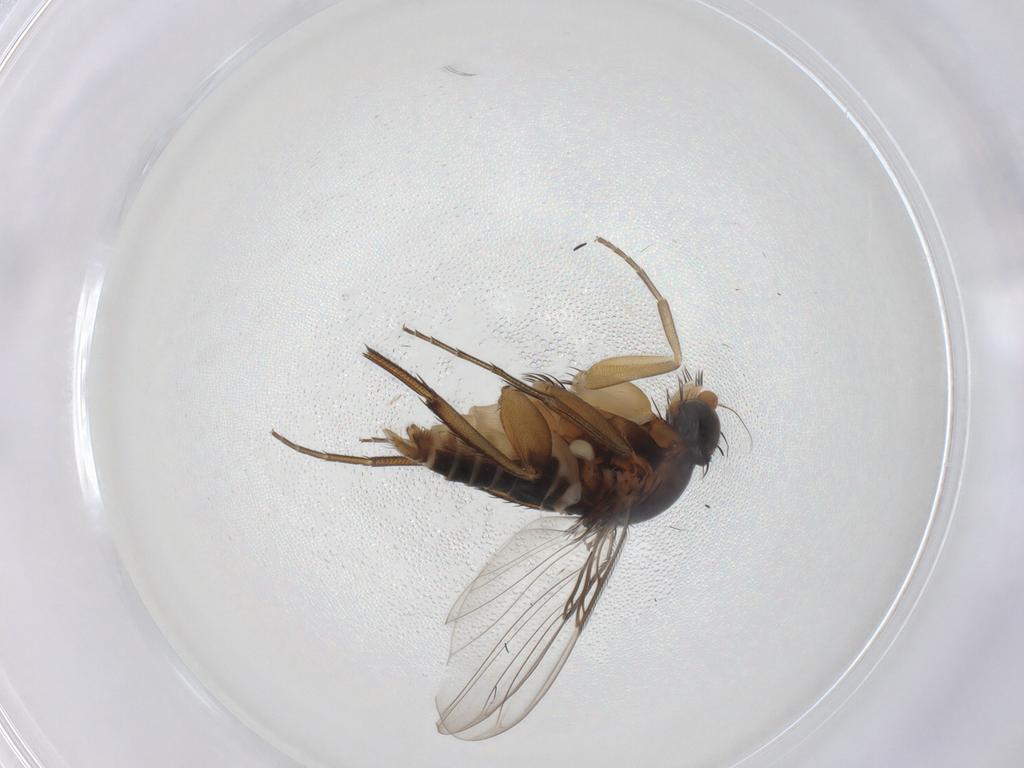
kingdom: Animalia
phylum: Arthropoda
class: Insecta
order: Diptera
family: Phoridae
